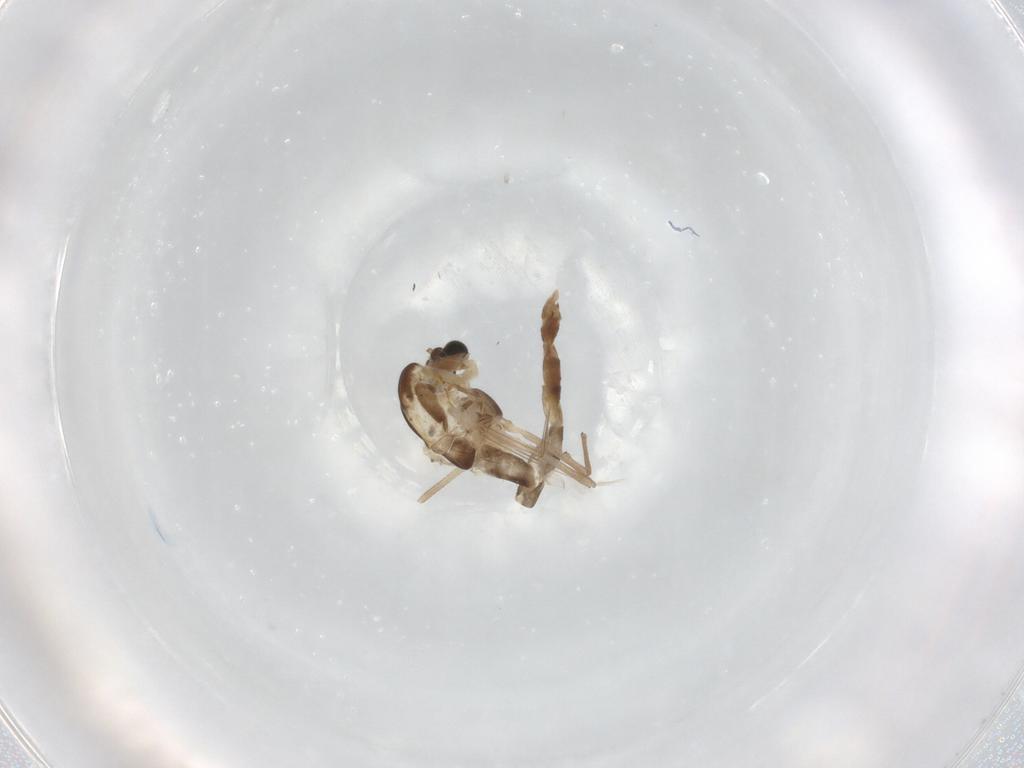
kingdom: Animalia
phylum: Arthropoda
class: Insecta
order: Diptera
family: Chironomidae
